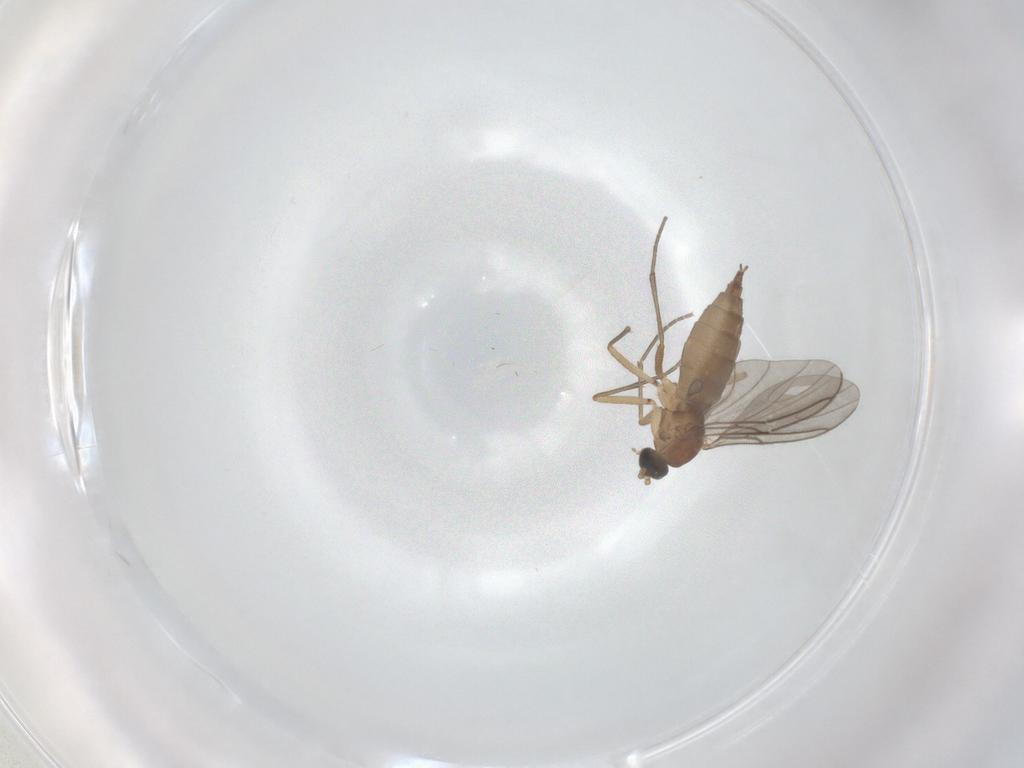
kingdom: Animalia
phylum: Arthropoda
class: Insecta
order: Diptera
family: Sciaridae
